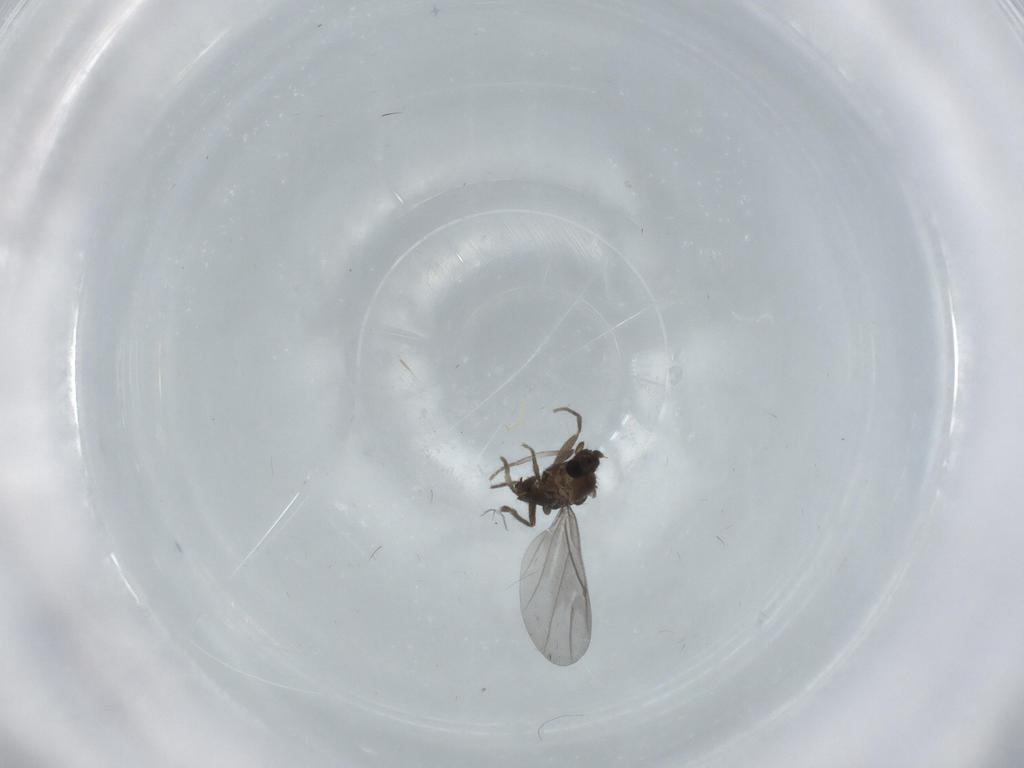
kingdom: Animalia
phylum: Arthropoda
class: Insecta
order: Diptera
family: Phoridae
